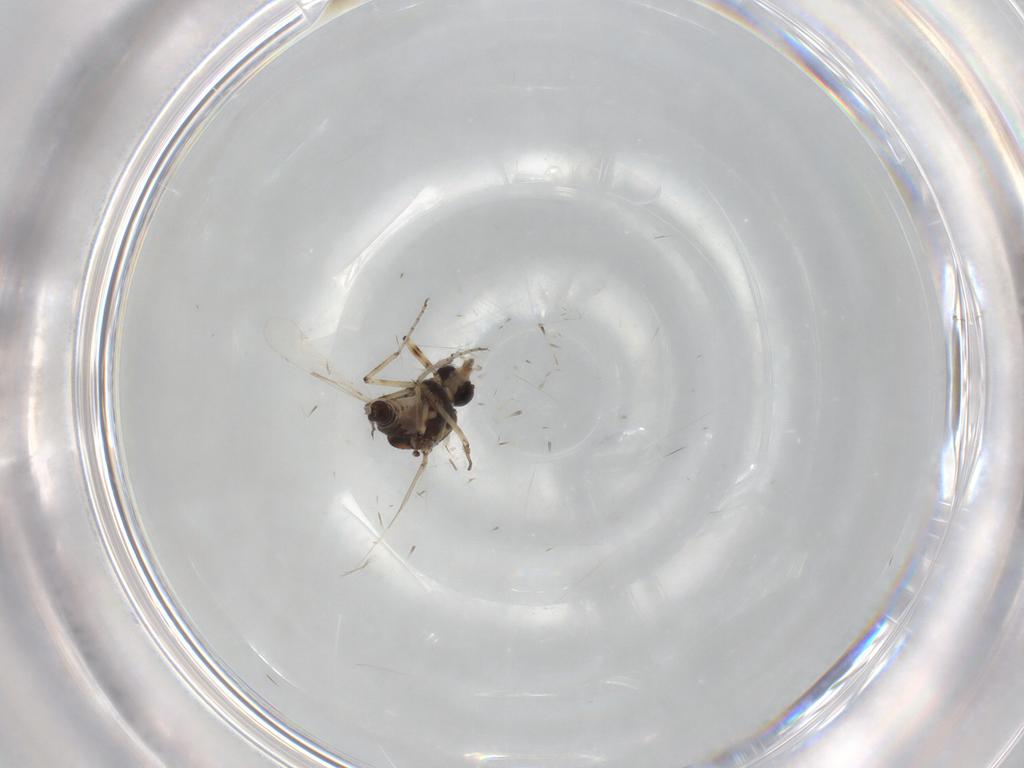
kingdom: Animalia
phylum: Arthropoda
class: Insecta
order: Diptera
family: Ceratopogonidae
